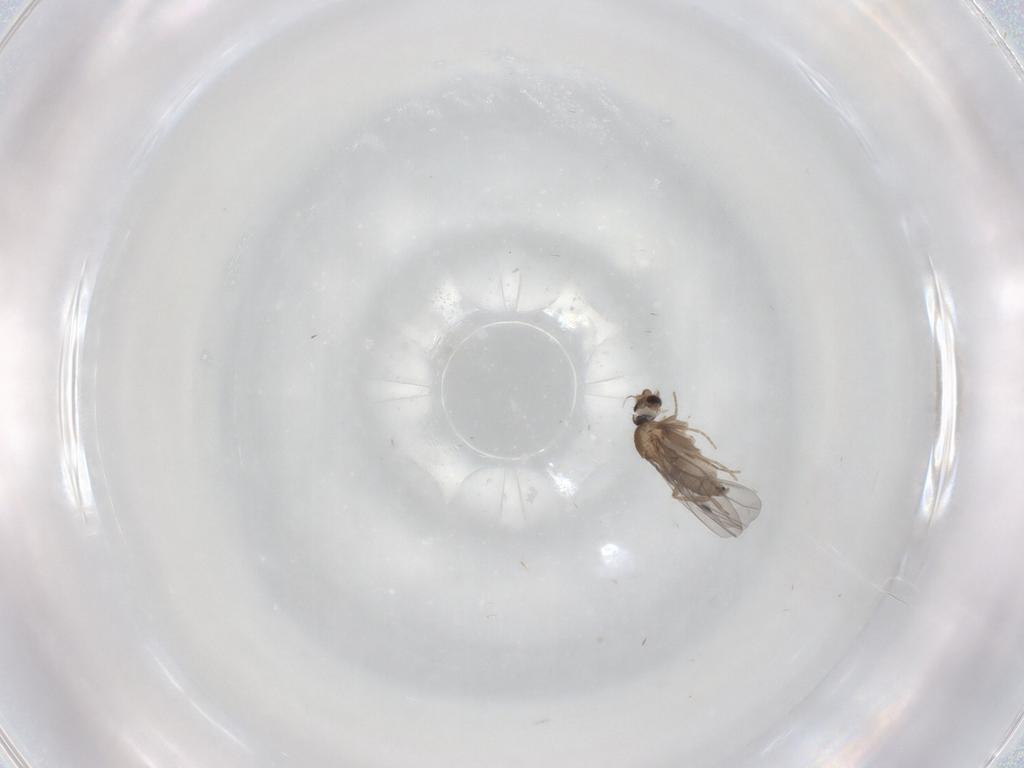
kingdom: Animalia
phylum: Arthropoda
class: Insecta
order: Diptera
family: Cecidomyiidae
